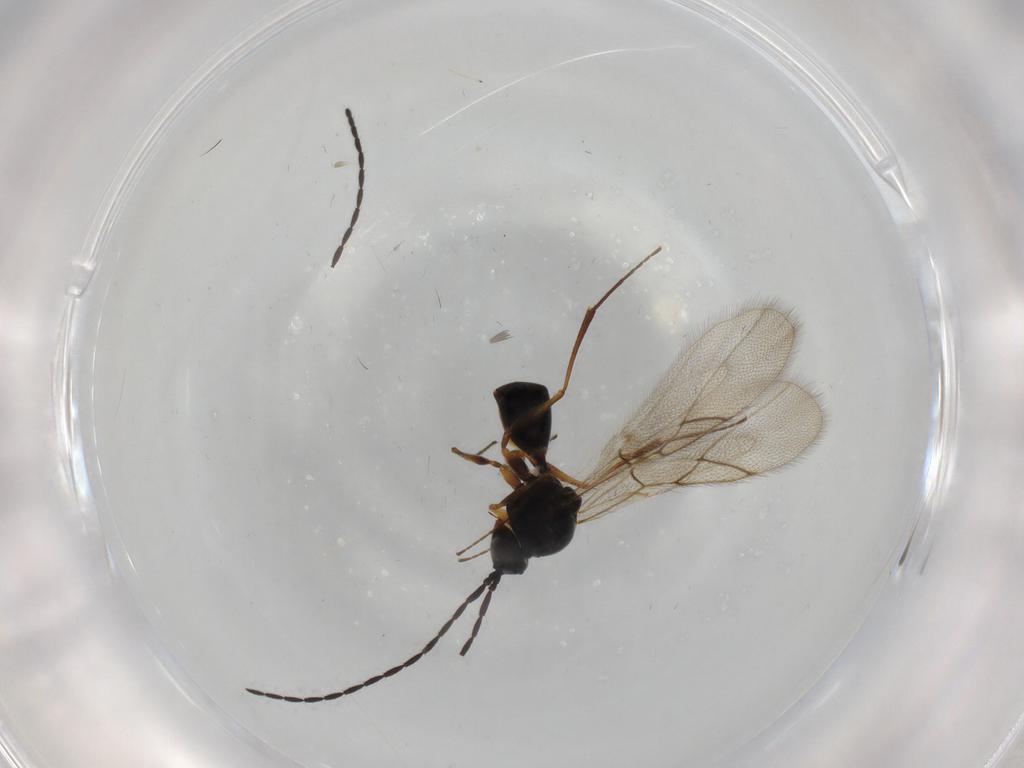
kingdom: Animalia
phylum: Arthropoda
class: Insecta
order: Hymenoptera
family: Figitidae
